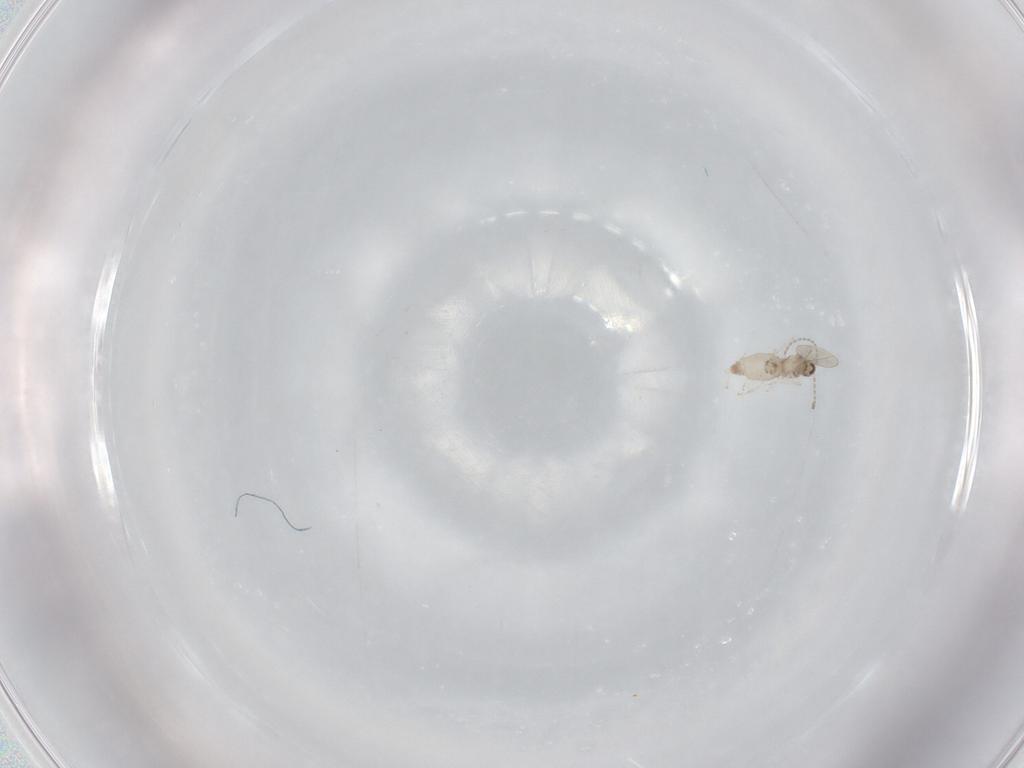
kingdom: Animalia
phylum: Arthropoda
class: Insecta
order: Diptera
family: Cecidomyiidae
